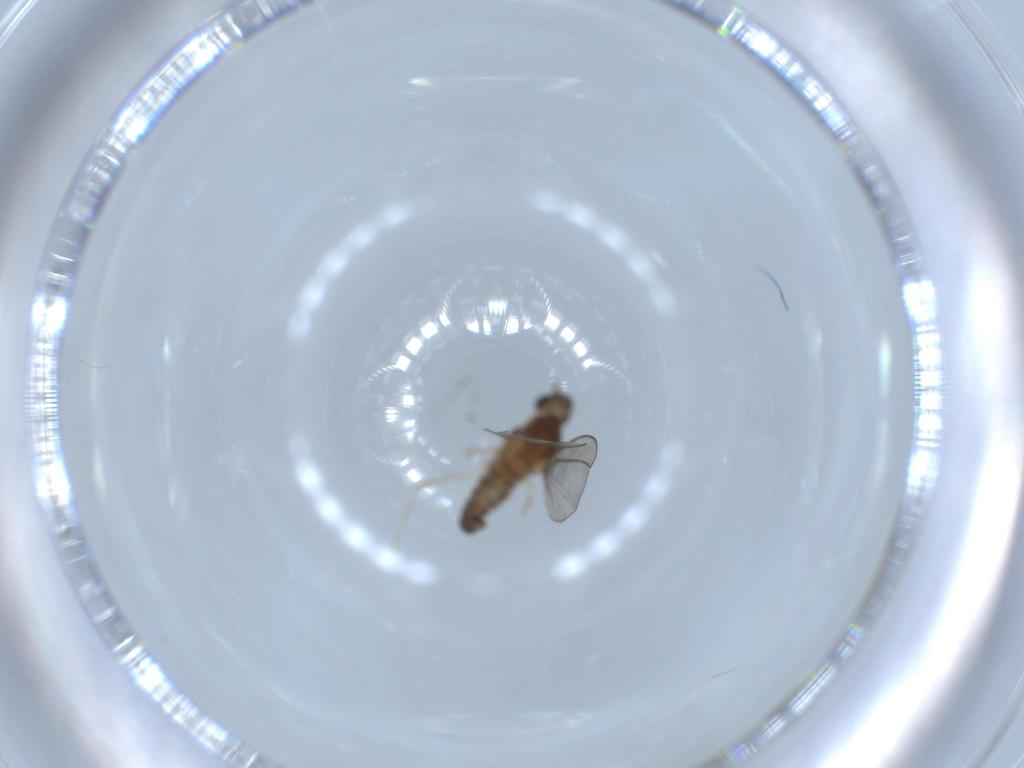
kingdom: Animalia
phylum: Arthropoda
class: Insecta
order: Diptera
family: Cecidomyiidae
